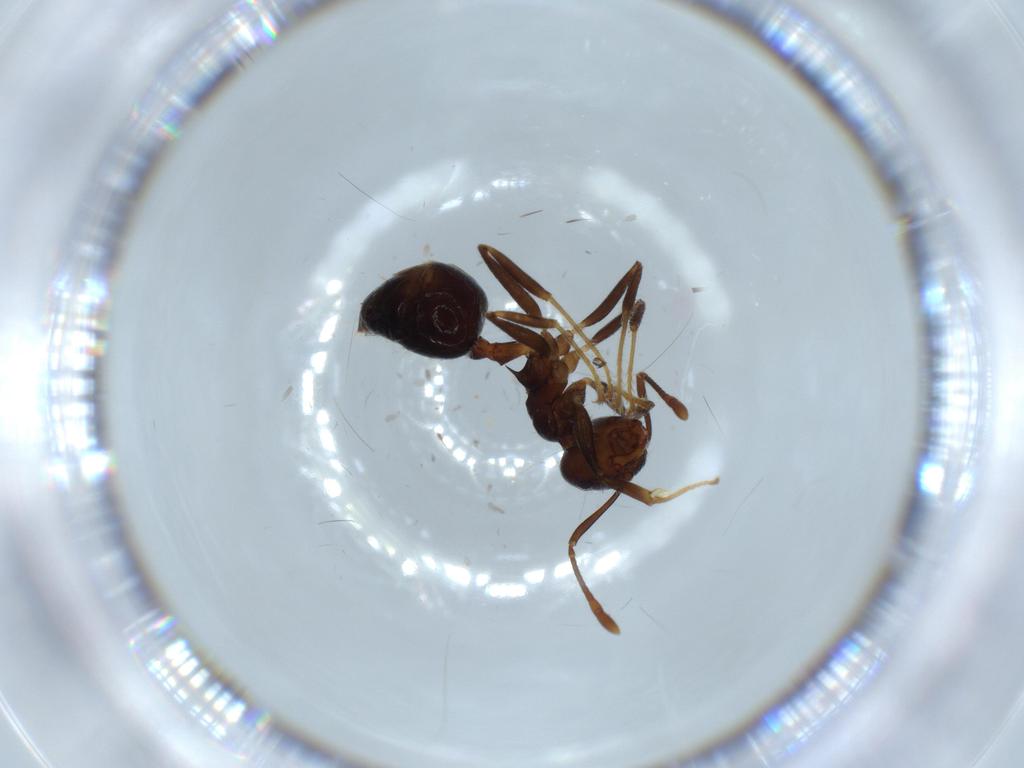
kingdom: Animalia
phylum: Arthropoda
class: Insecta
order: Hymenoptera
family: Formicidae
